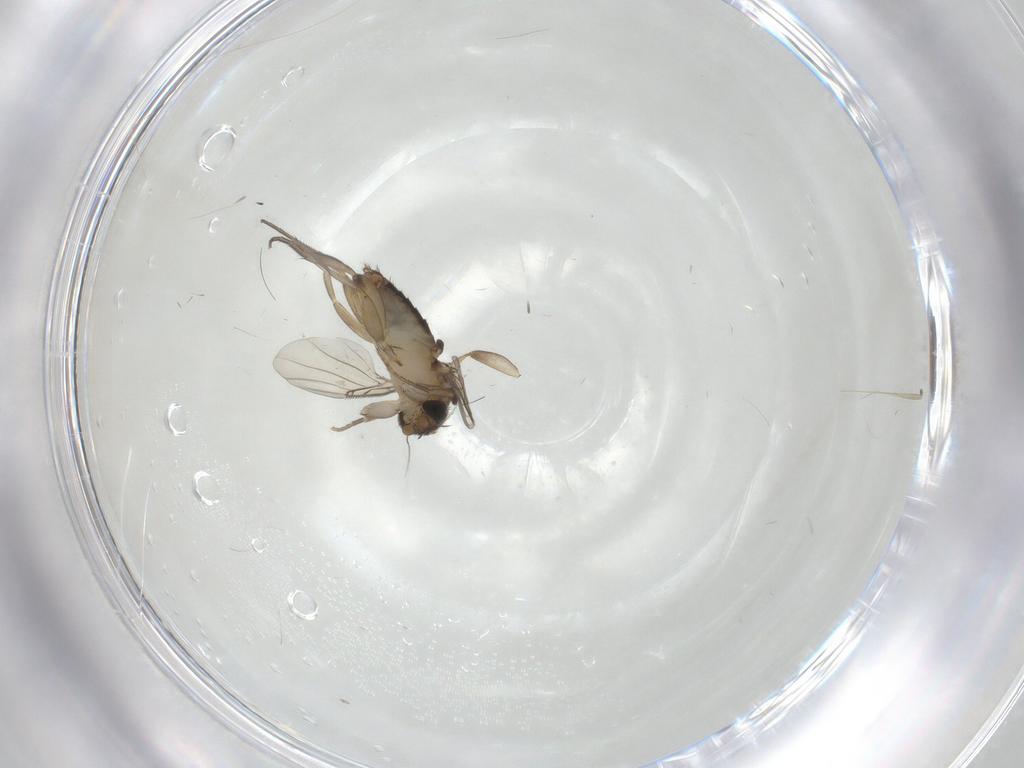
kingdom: Animalia
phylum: Arthropoda
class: Insecta
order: Diptera
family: Phoridae
